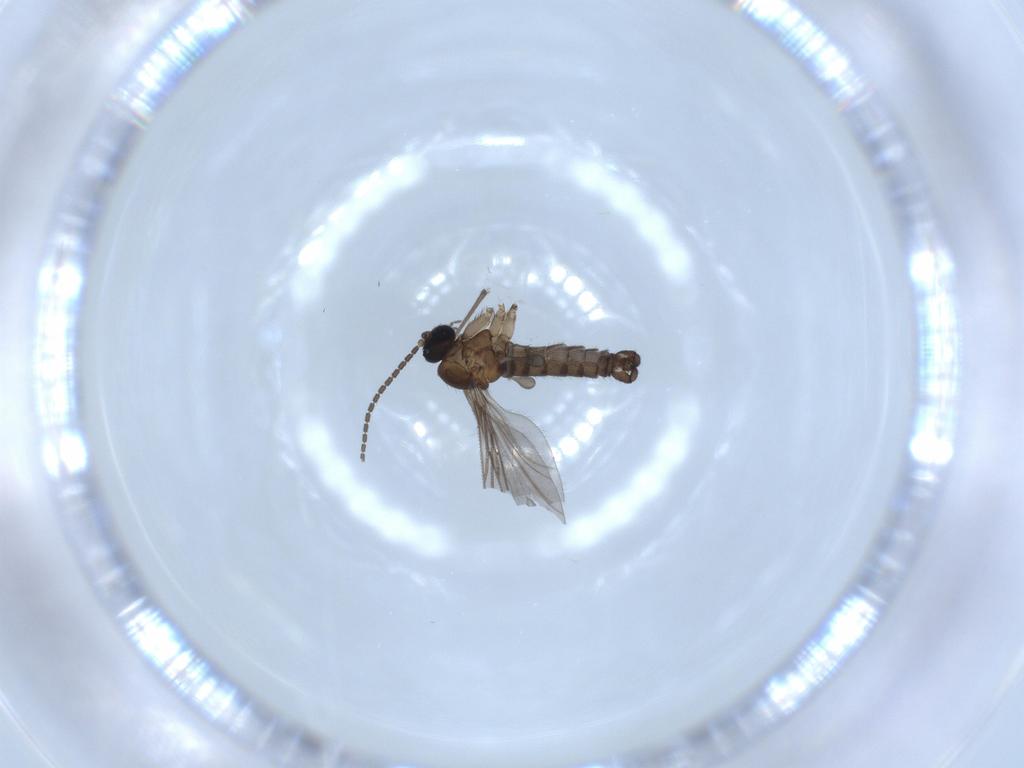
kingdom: Animalia
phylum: Arthropoda
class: Insecta
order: Diptera
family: Sciaridae
